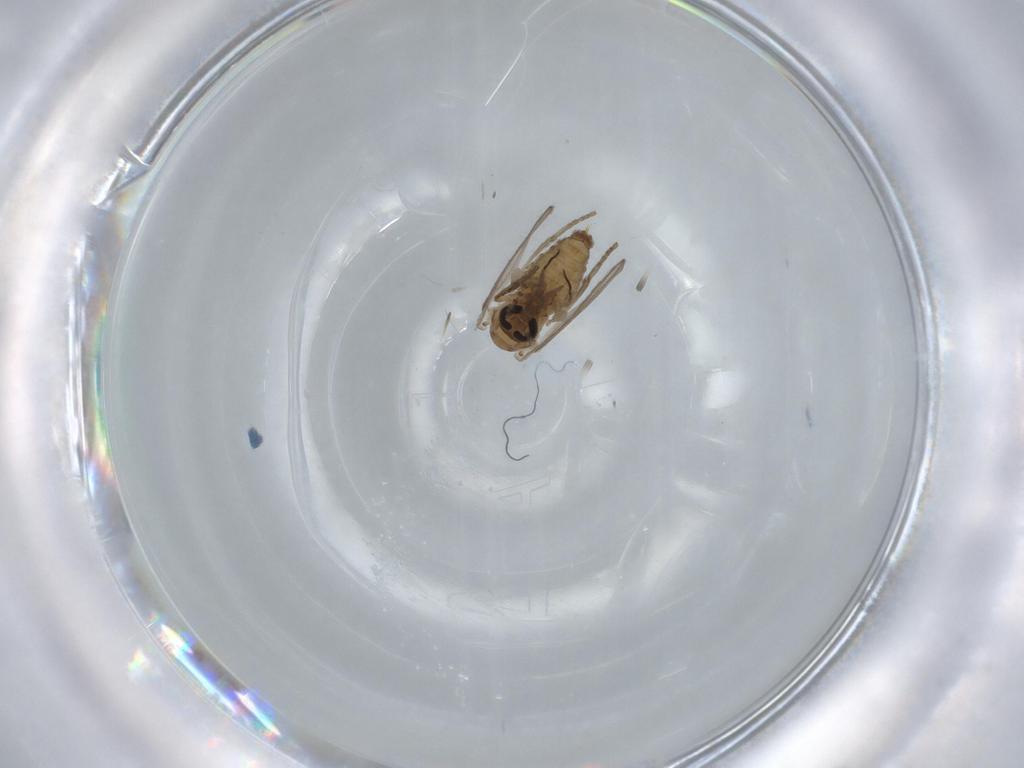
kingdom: Animalia
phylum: Arthropoda
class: Insecta
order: Diptera
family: Psychodidae
